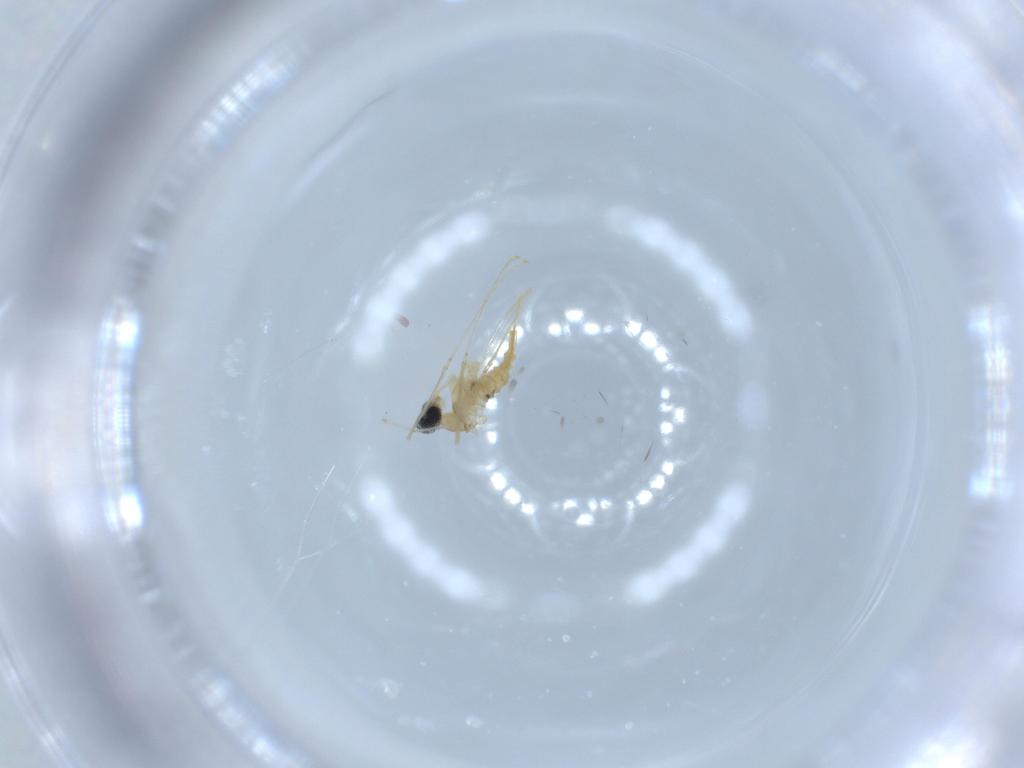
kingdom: Animalia
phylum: Arthropoda
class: Insecta
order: Diptera
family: Cecidomyiidae
